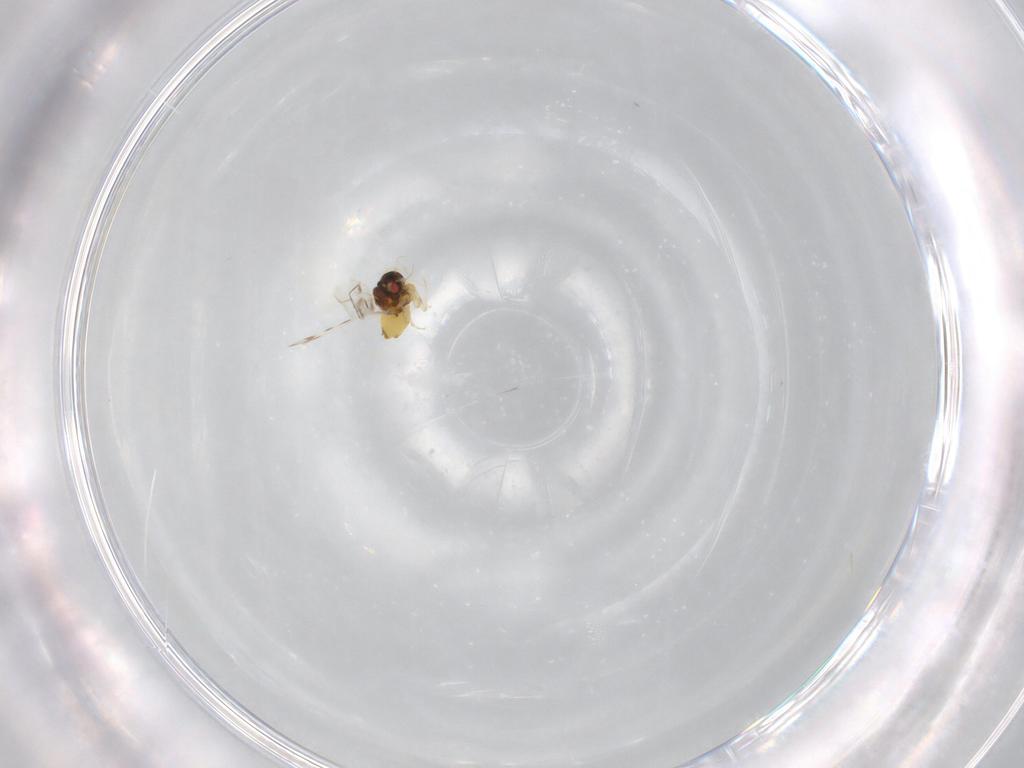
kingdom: Animalia
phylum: Arthropoda
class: Insecta
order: Hemiptera
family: Aleyrodidae
